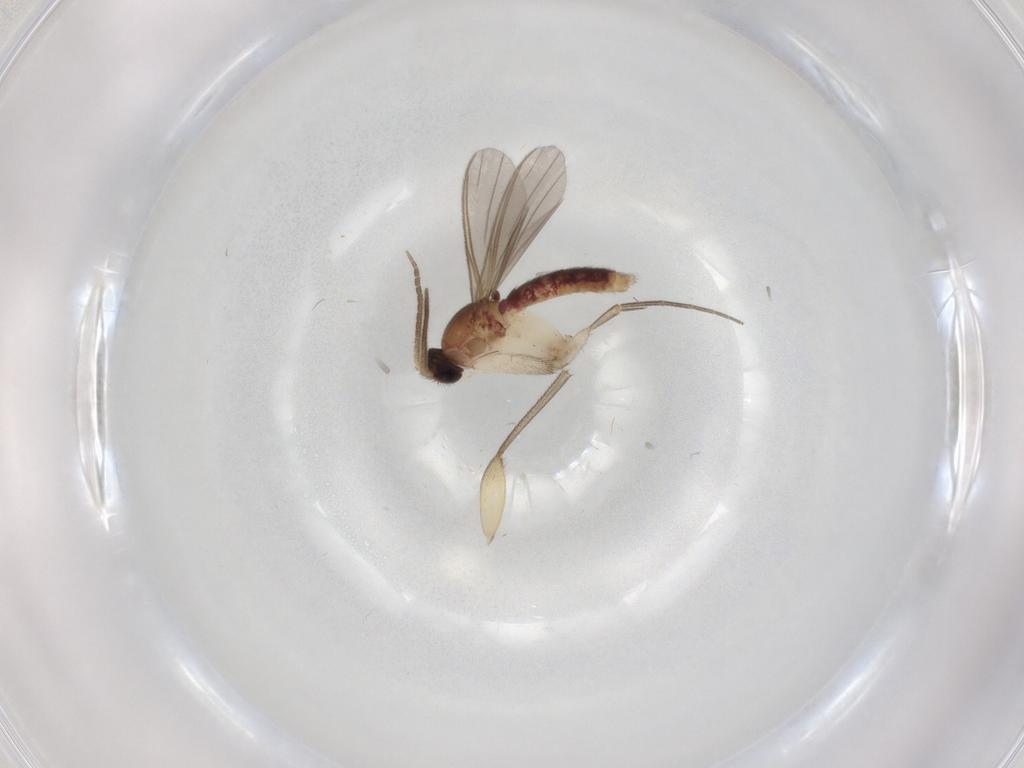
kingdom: Animalia
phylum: Arthropoda
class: Insecta
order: Diptera
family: Mycetophilidae
